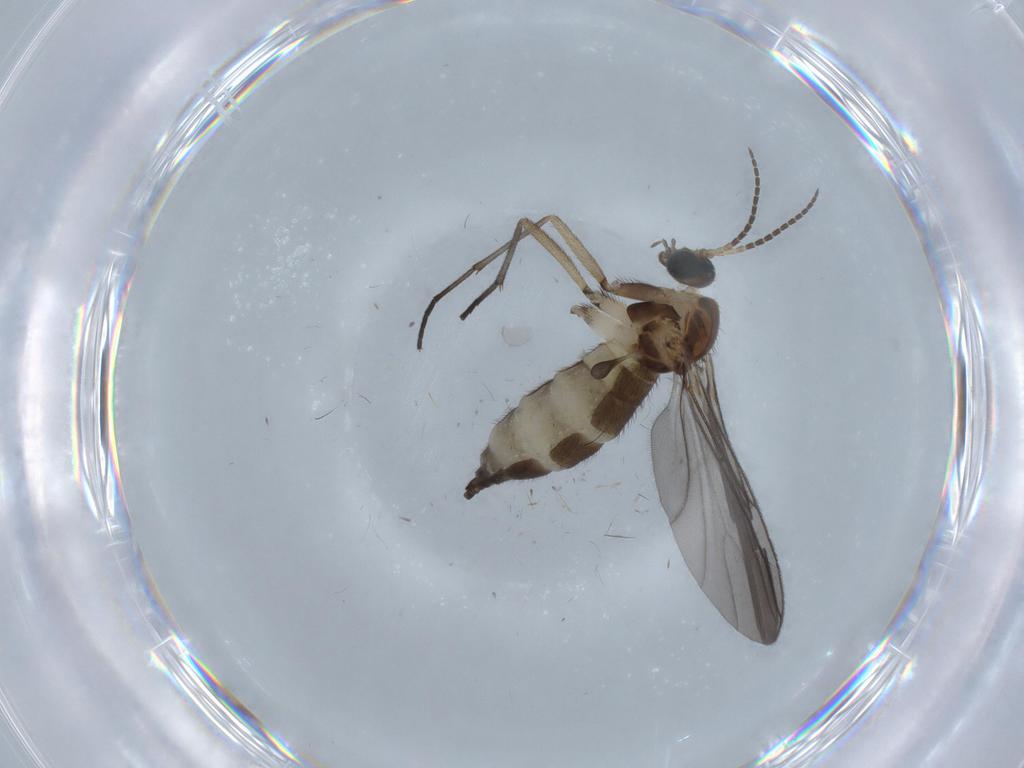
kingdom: Animalia
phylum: Arthropoda
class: Insecta
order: Diptera
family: Sciaridae
